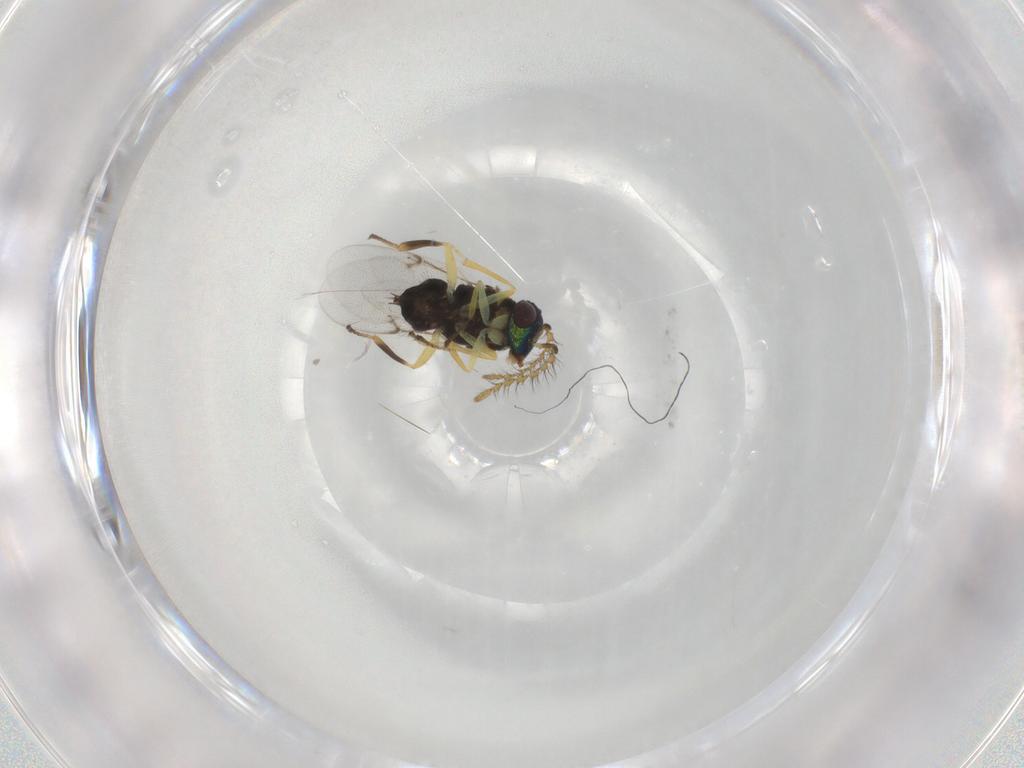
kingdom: Animalia
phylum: Arthropoda
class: Insecta
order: Hymenoptera
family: Encyrtidae
